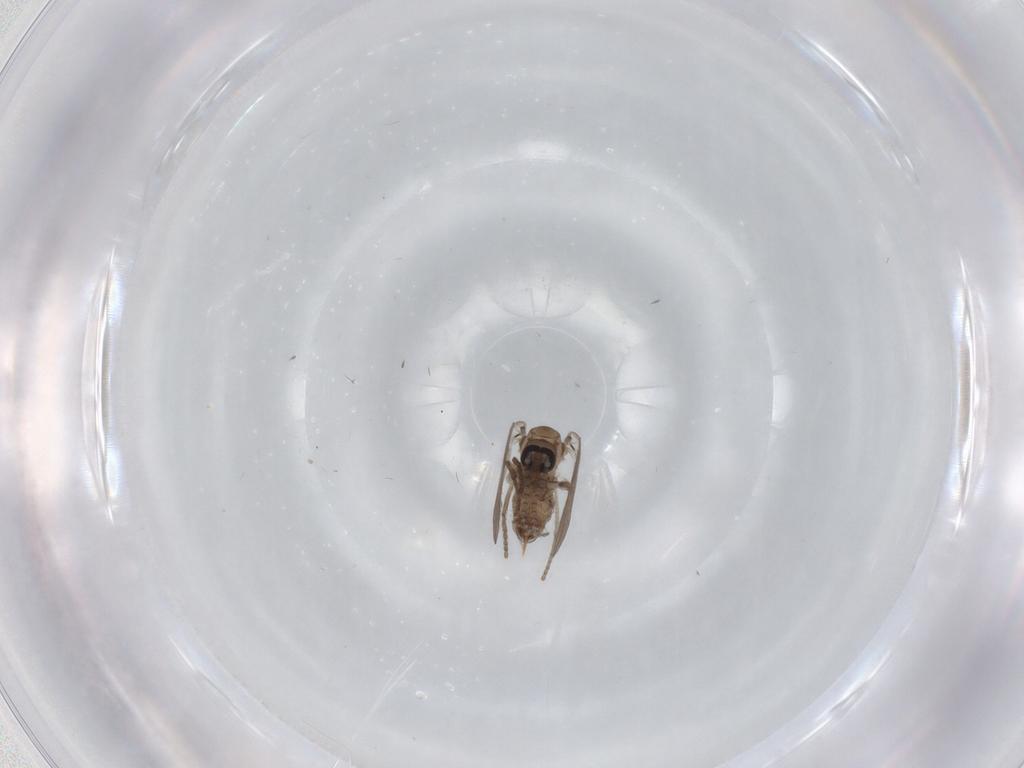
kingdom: Animalia
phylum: Arthropoda
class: Insecta
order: Diptera
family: Psychodidae
